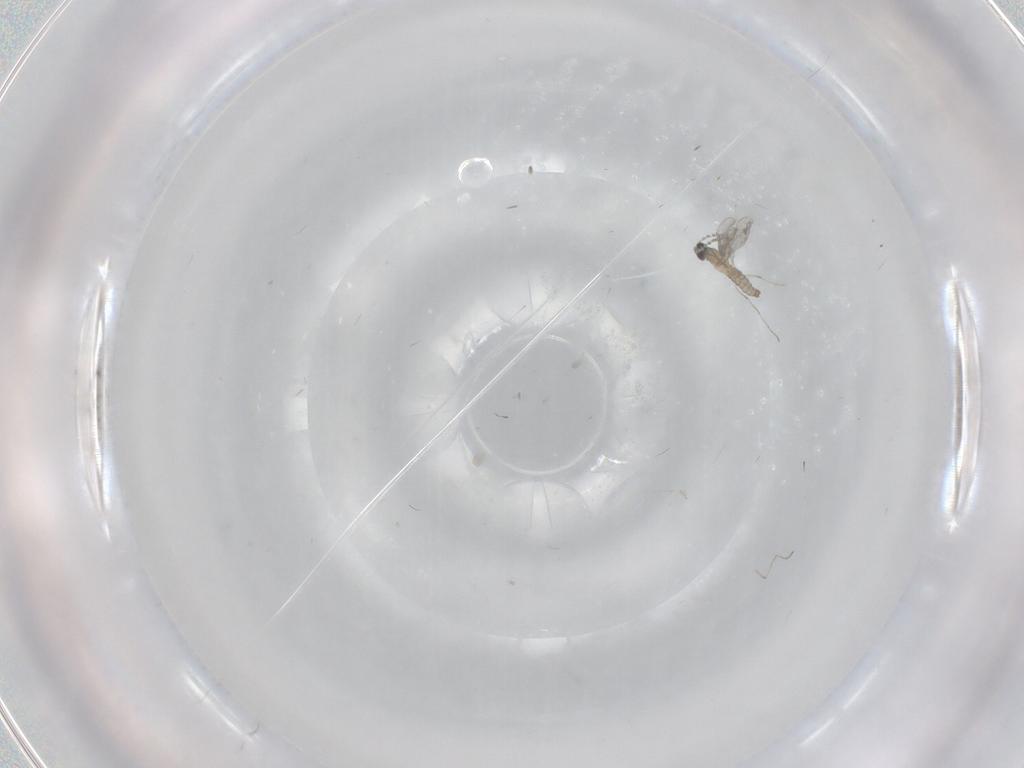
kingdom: Animalia
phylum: Arthropoda
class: Insecta
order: Diptera
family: Cecidomyiidae
